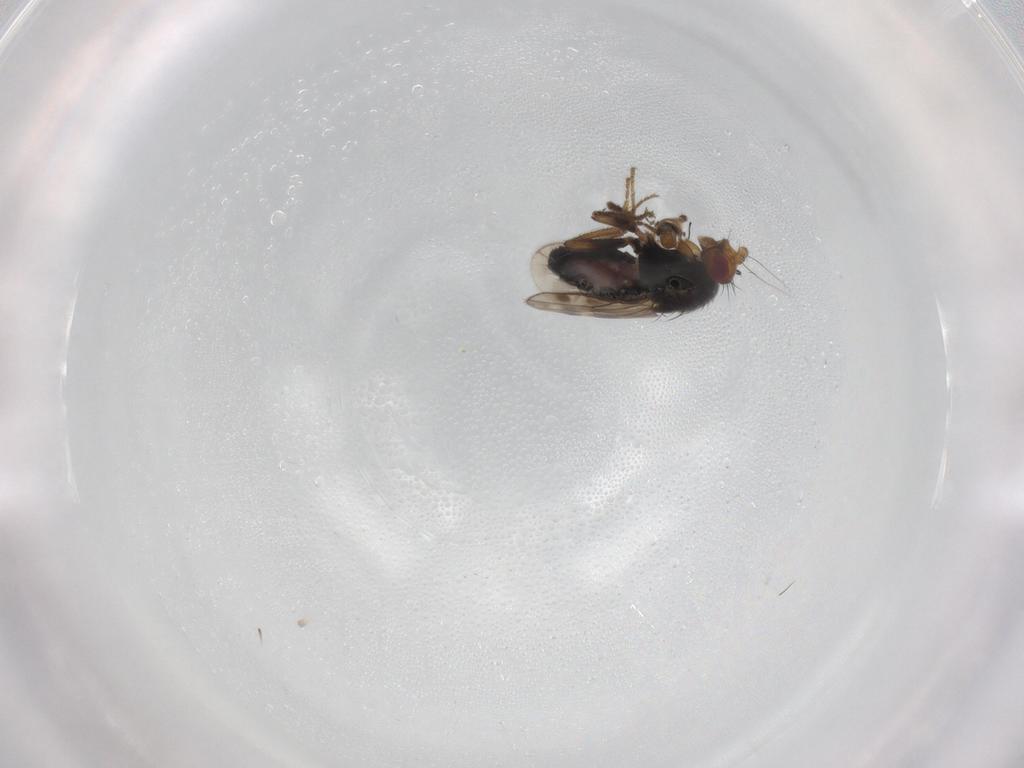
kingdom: Animalia
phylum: Arthropoda
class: Insecta
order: Diptera
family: Sphaeroceridae
